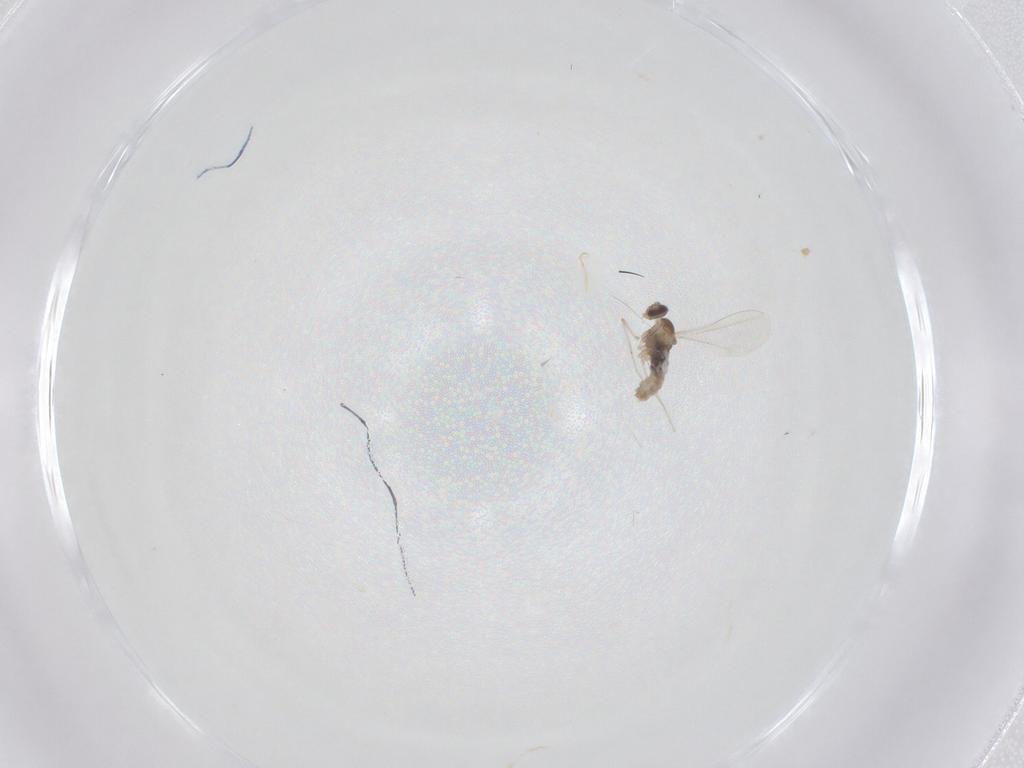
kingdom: Animalia
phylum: Arthropoda
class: Insecta
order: Diptera
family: Cecidomyiidae
